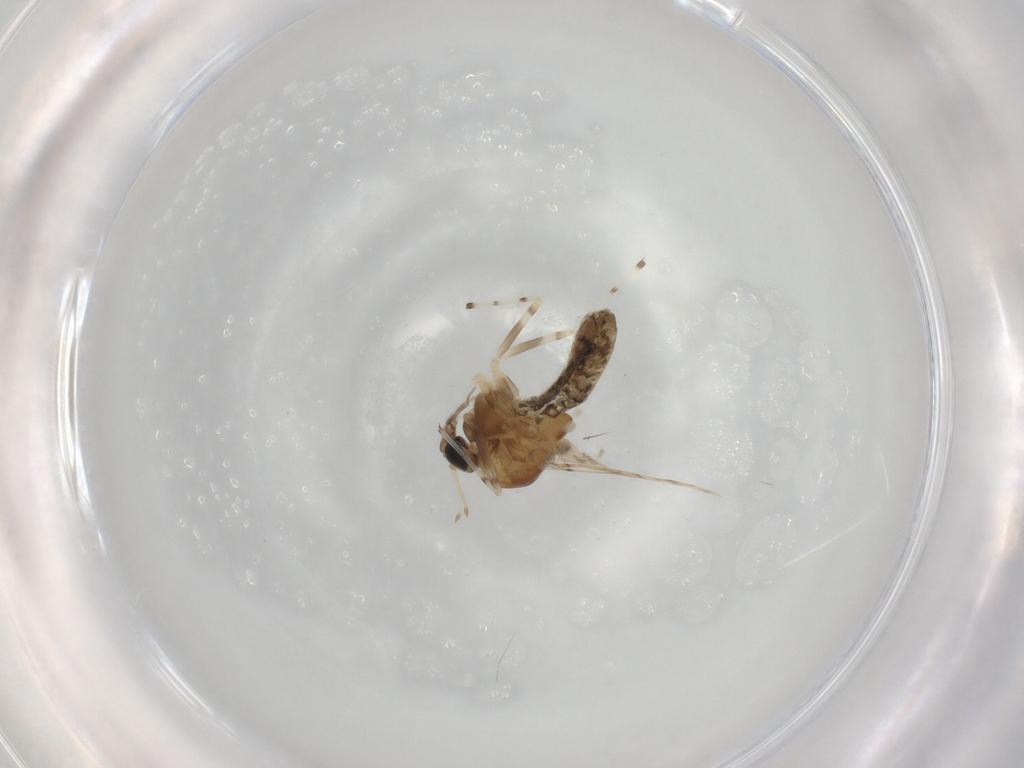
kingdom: Animalia
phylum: Arthropoda
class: Insecta
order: Diptera
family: Chironomidae
